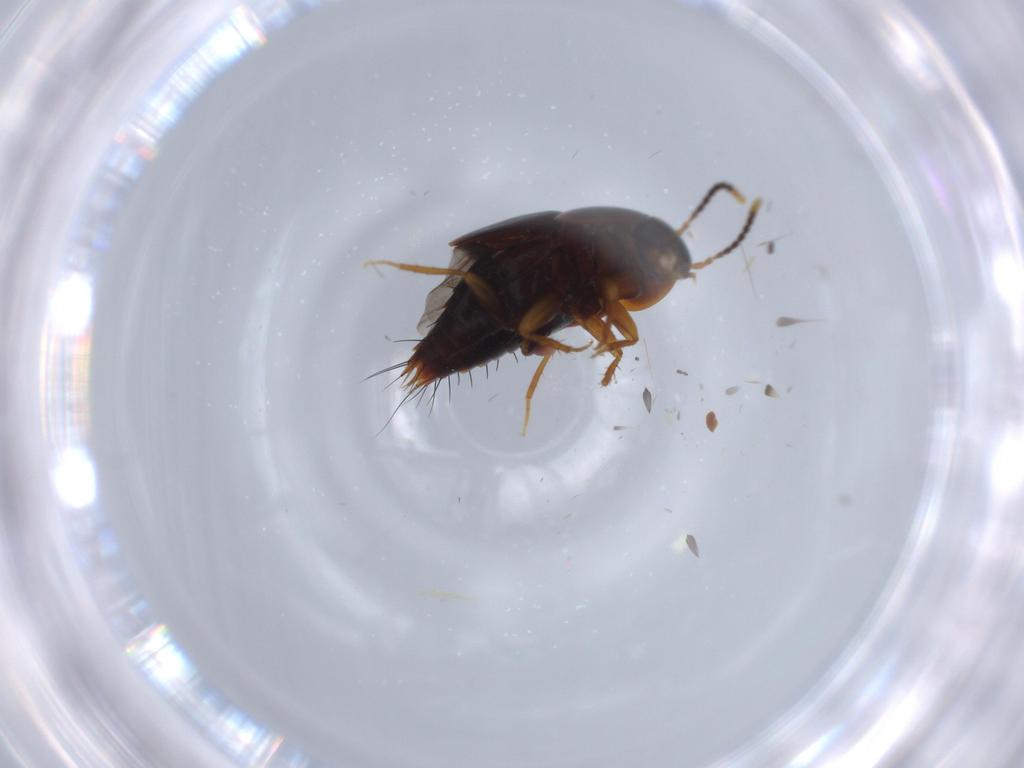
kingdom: Animalia
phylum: Arthropoda
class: Insecta
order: Coleoptera
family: Staphylinidae
